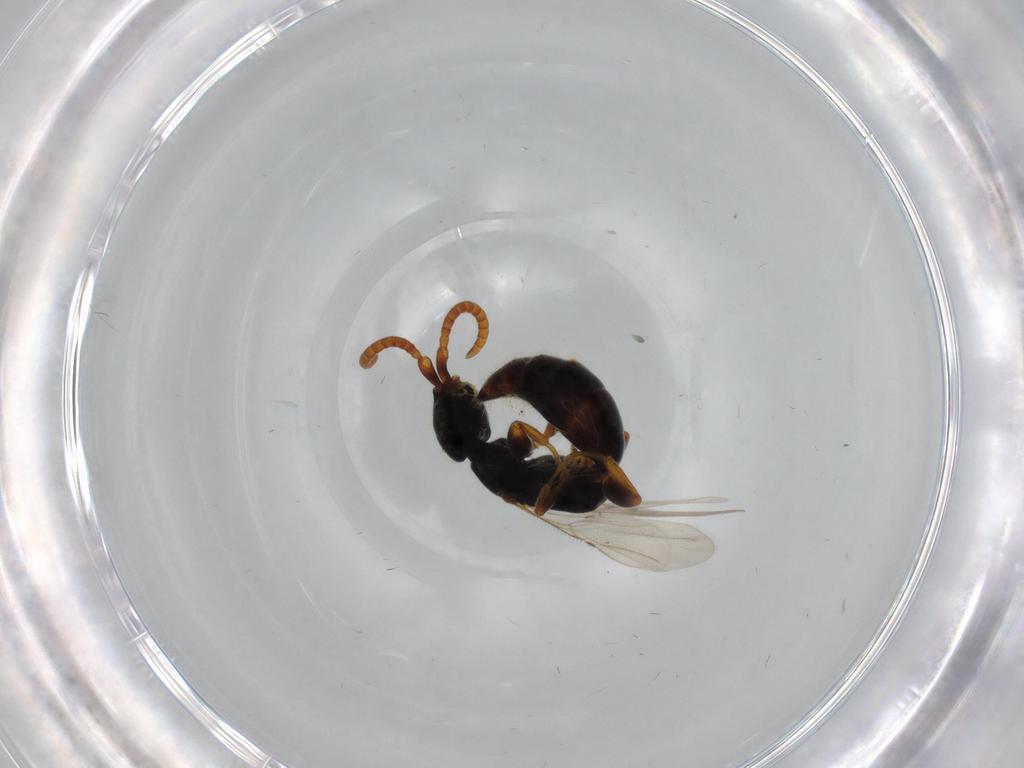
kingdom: Animalia
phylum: Arthropoda
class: Insecta
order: Hymenoptera
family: Bethylidae
